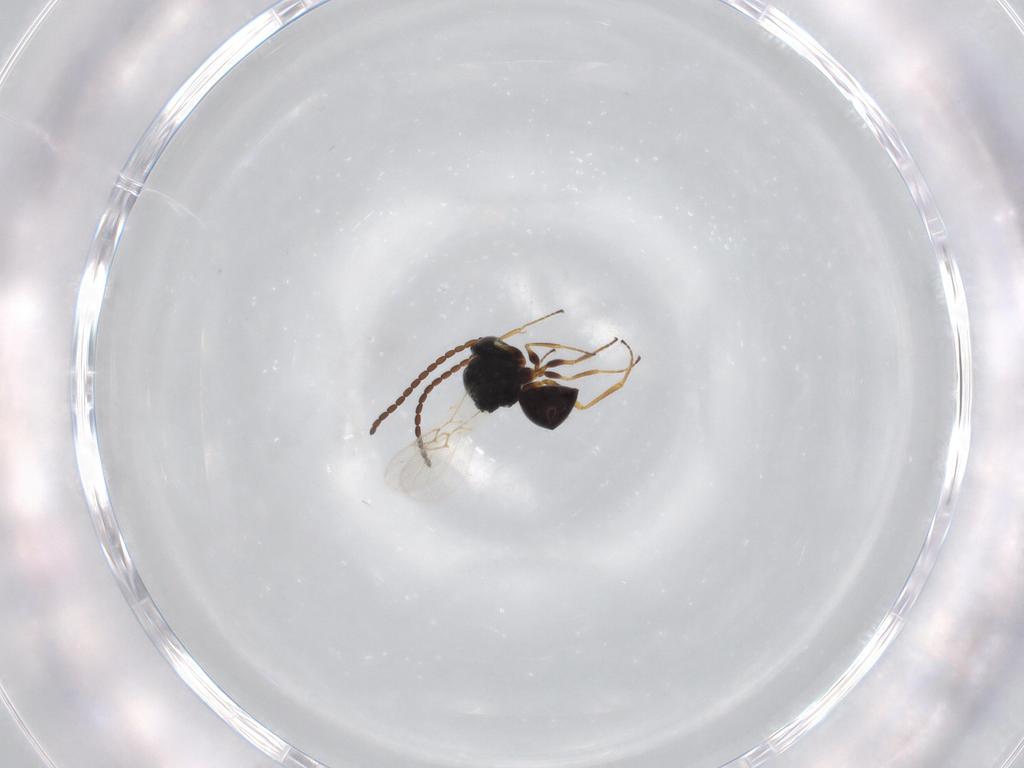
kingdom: Animalia
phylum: Arthropoda
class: Insecta
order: Hymenoptera
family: Figitidae
